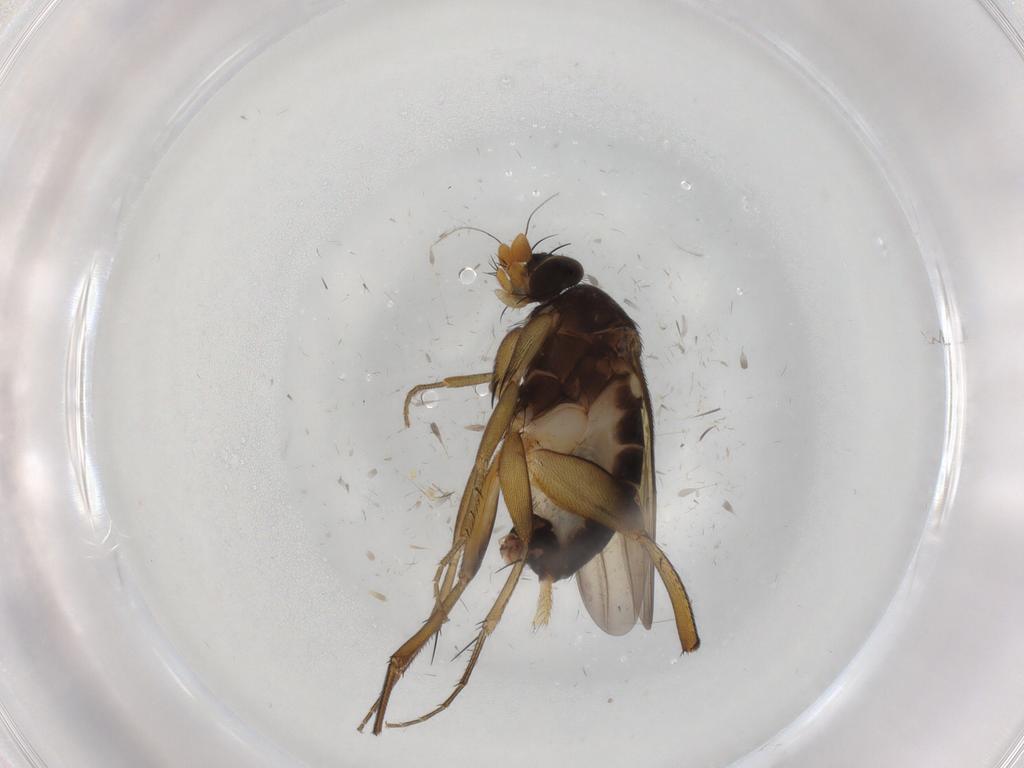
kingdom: Animalia
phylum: Arthropoda
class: Insecta
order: Diptera
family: Phoridae
